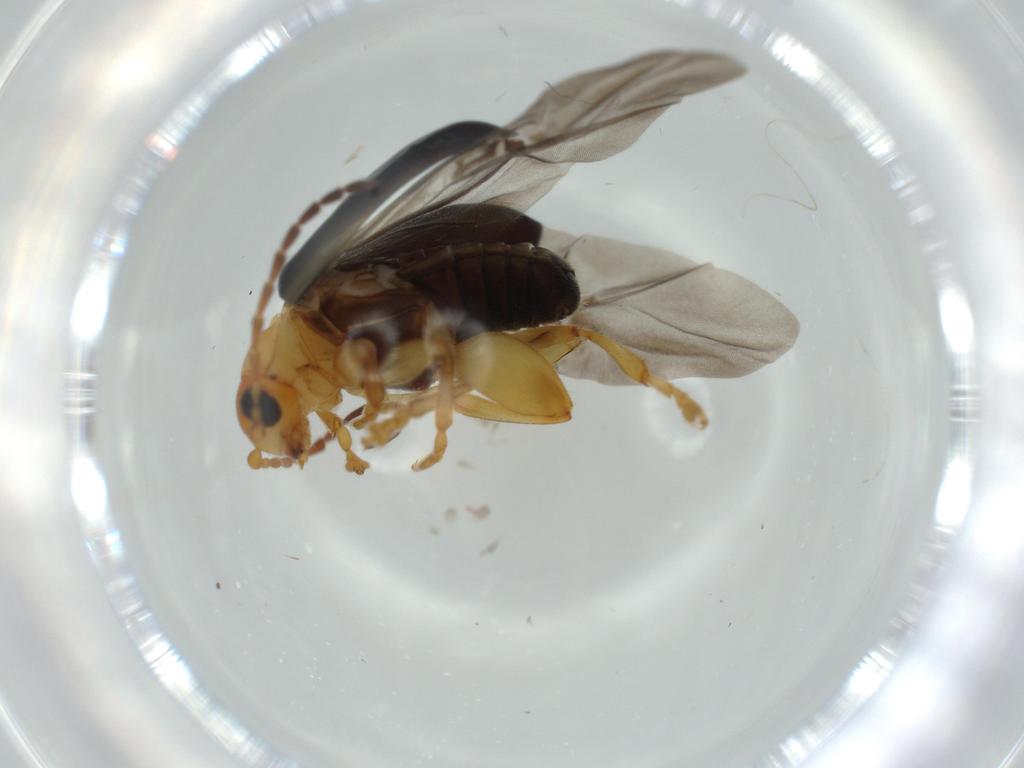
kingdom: Animalia
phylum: Arthropoda
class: Insecta
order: Coleoptera
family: Chrysomelidae
